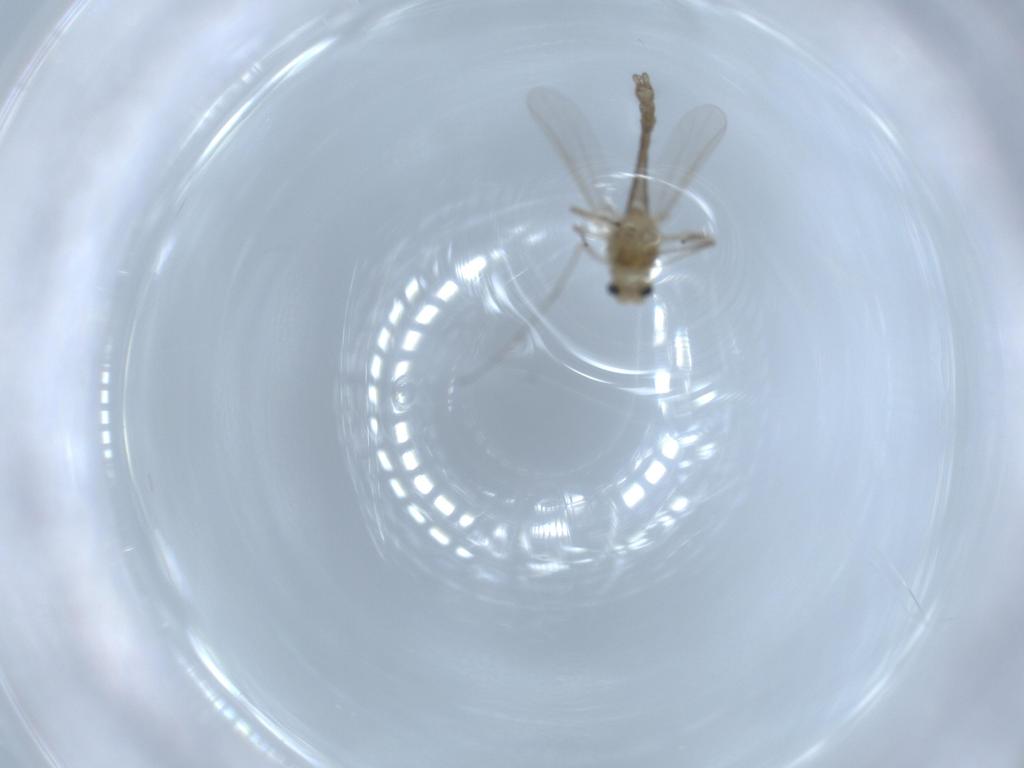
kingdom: Animalia
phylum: Arthropoda
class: Insecta
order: Diptera
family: Chironomidae
